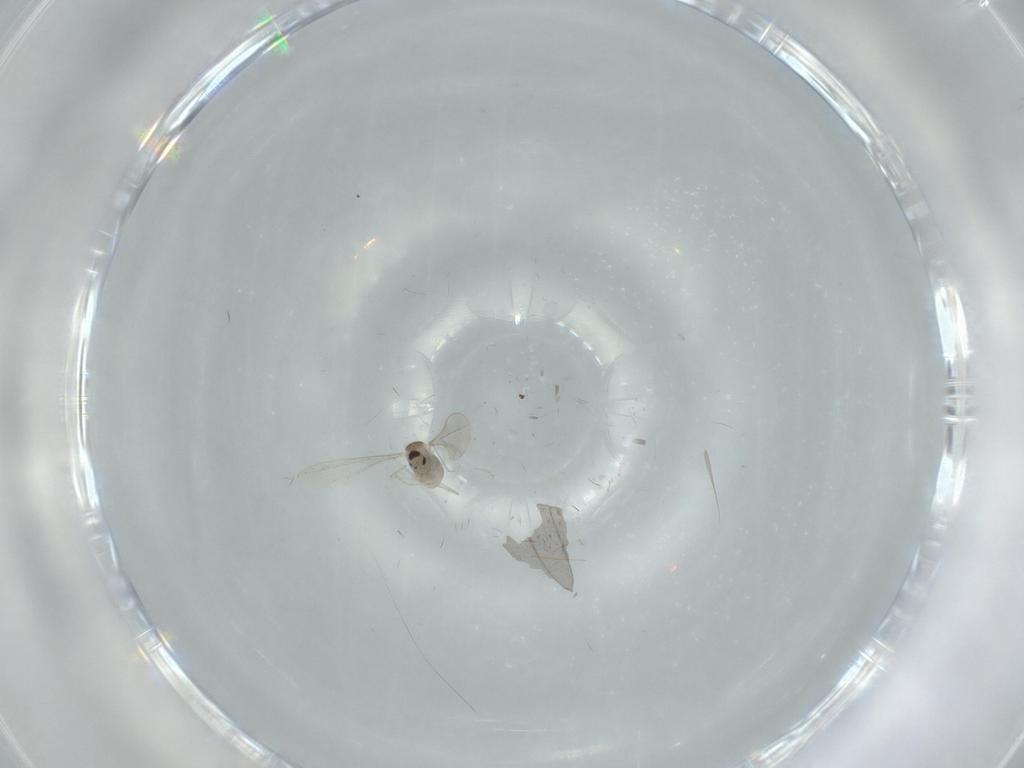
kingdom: Animalia
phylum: Arthropoda
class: Insecta
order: Diptera
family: Cecidomyiidae
